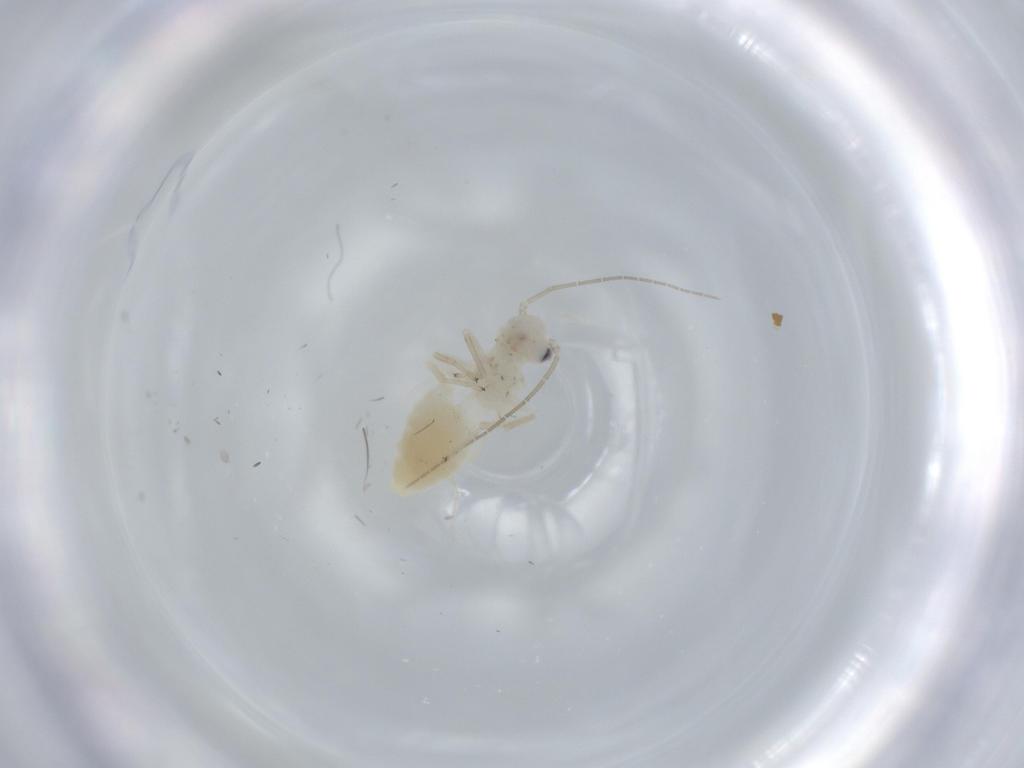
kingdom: Animalia
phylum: Arthropoda
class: Insecta
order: Psocodea
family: Caeciliusidae
